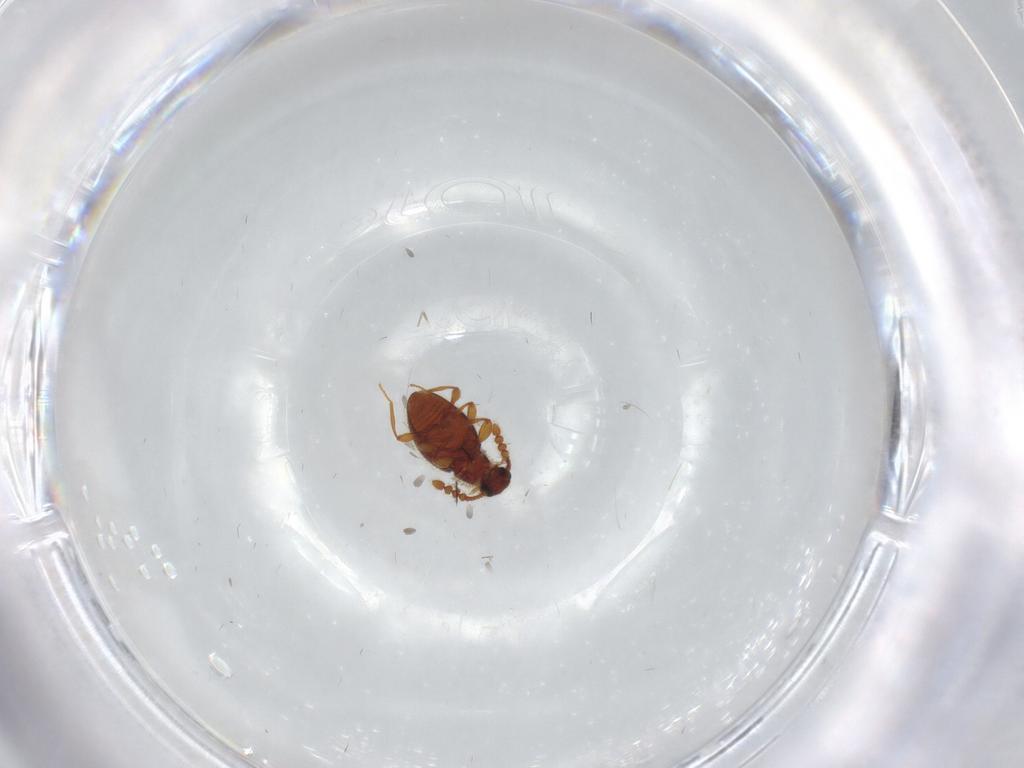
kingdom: Animalia
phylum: Arthropoda
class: Insecta
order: Coleoptera
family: Staphylinidae
